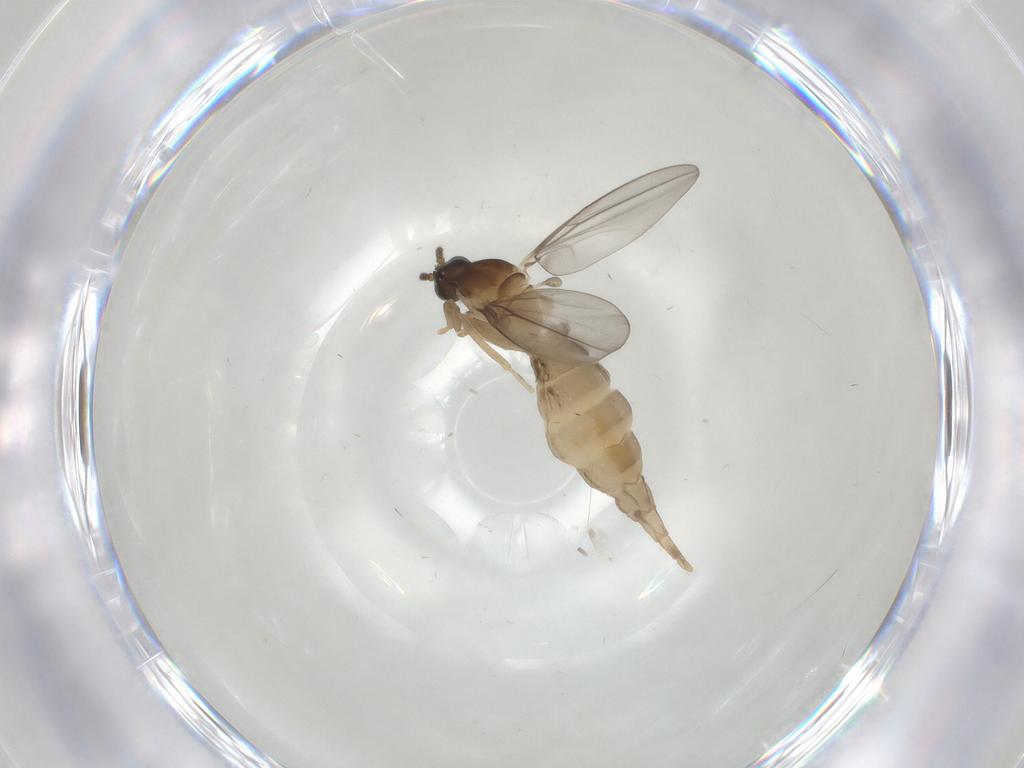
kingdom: Animalia
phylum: Arthropoda
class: Insecta
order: Diptera
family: Cecidomyiidae
